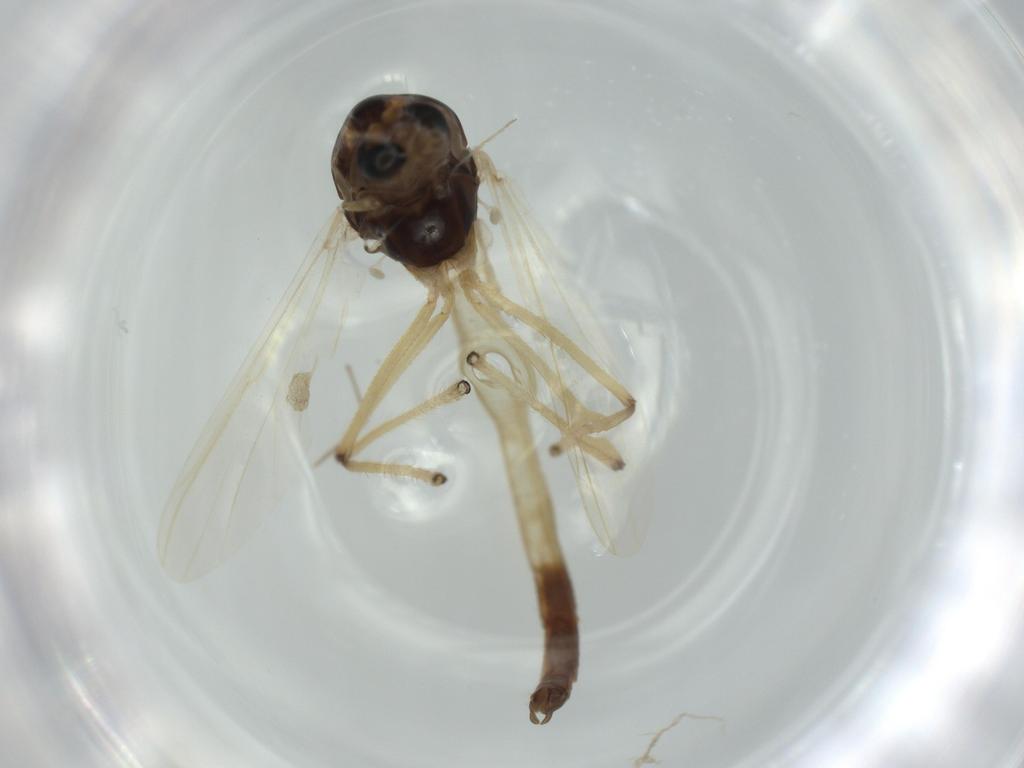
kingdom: Animalia
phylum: Arthropoda
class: Insecta
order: Diptera
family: Chironomidae
